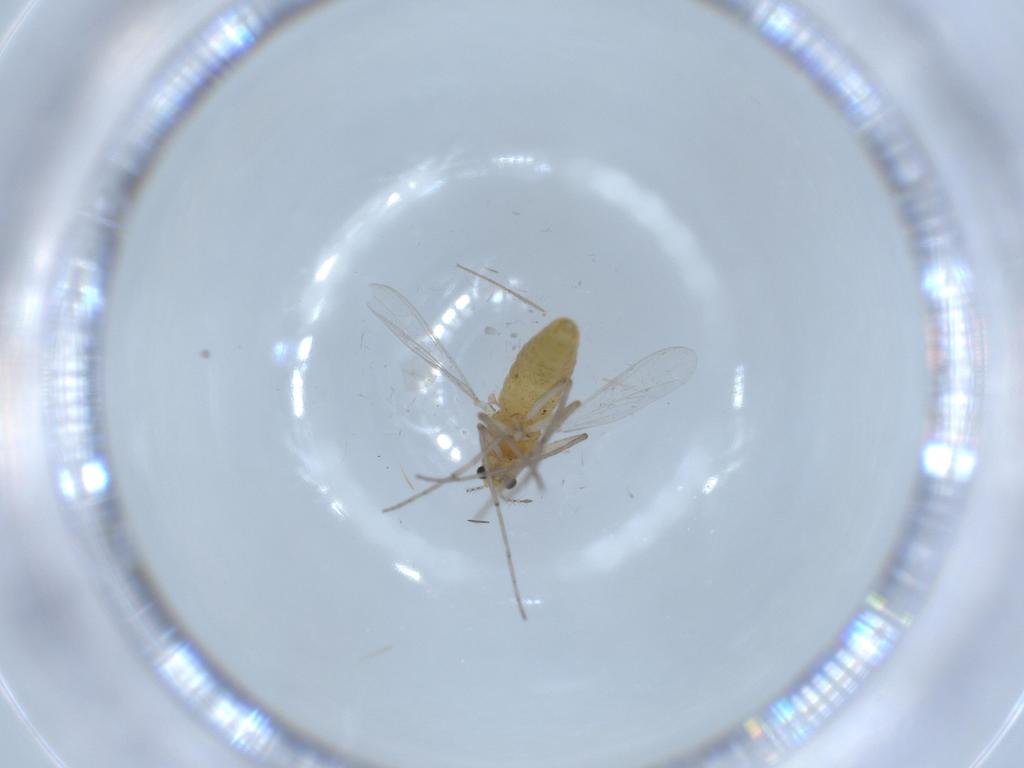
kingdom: Animalia
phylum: Arthropoda
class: Insecta
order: Diptera
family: Chironomidae
